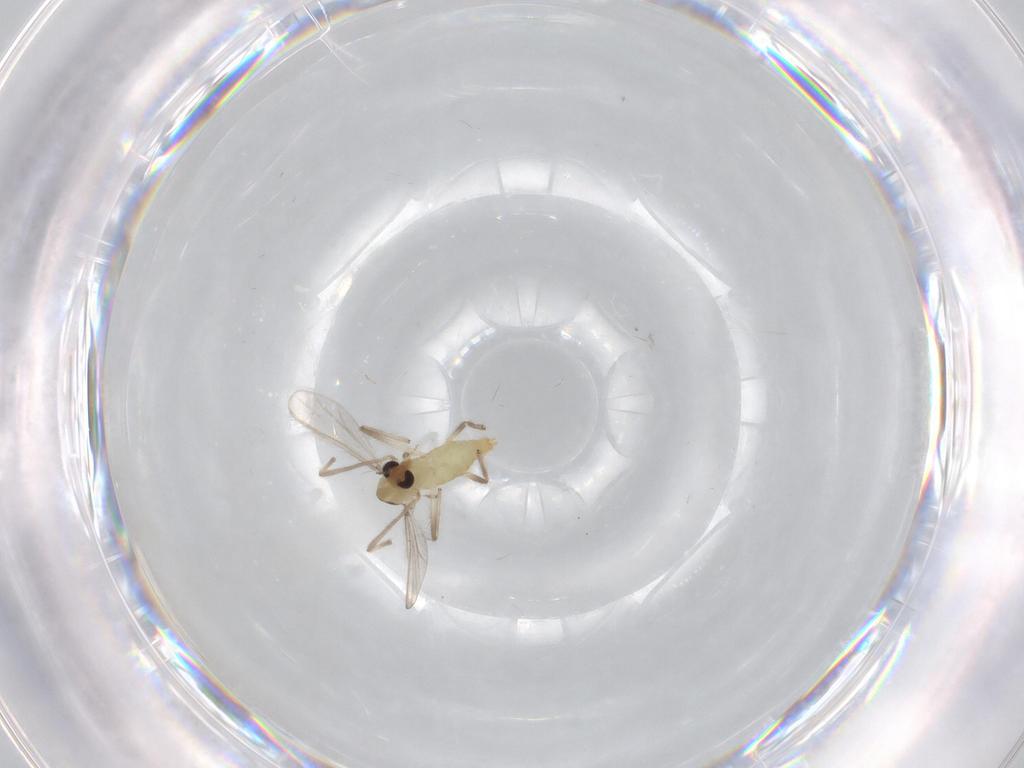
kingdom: Animalia
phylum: Arthropoda
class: Insecta
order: Diptera
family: Chironomidae
